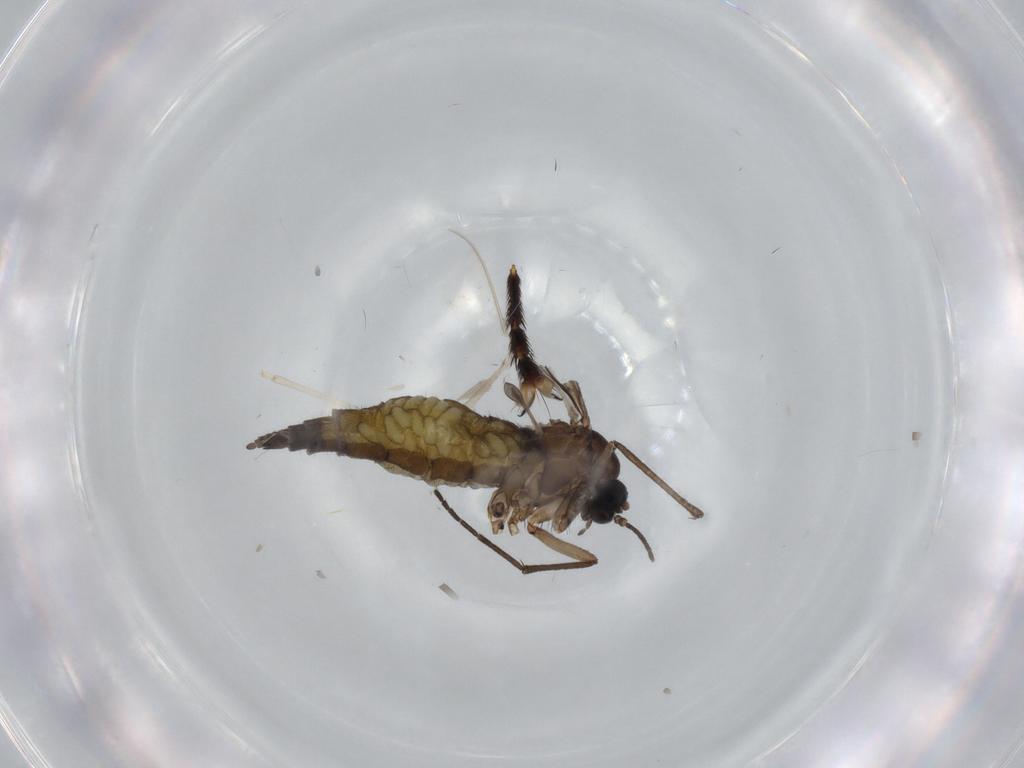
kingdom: Animalia
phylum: Arthropoda
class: Insecta
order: Diptera
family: Sciaridae
